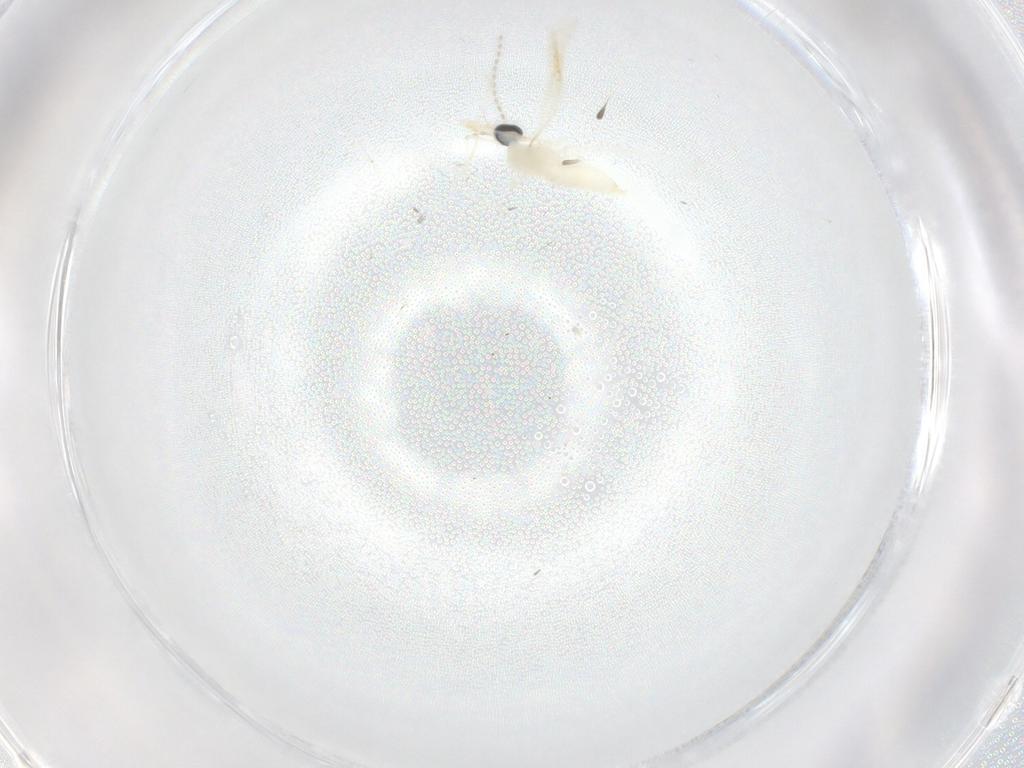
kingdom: Animalia
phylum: Arthropoda
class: Insecta
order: Diptera
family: Cecidomyiidae
